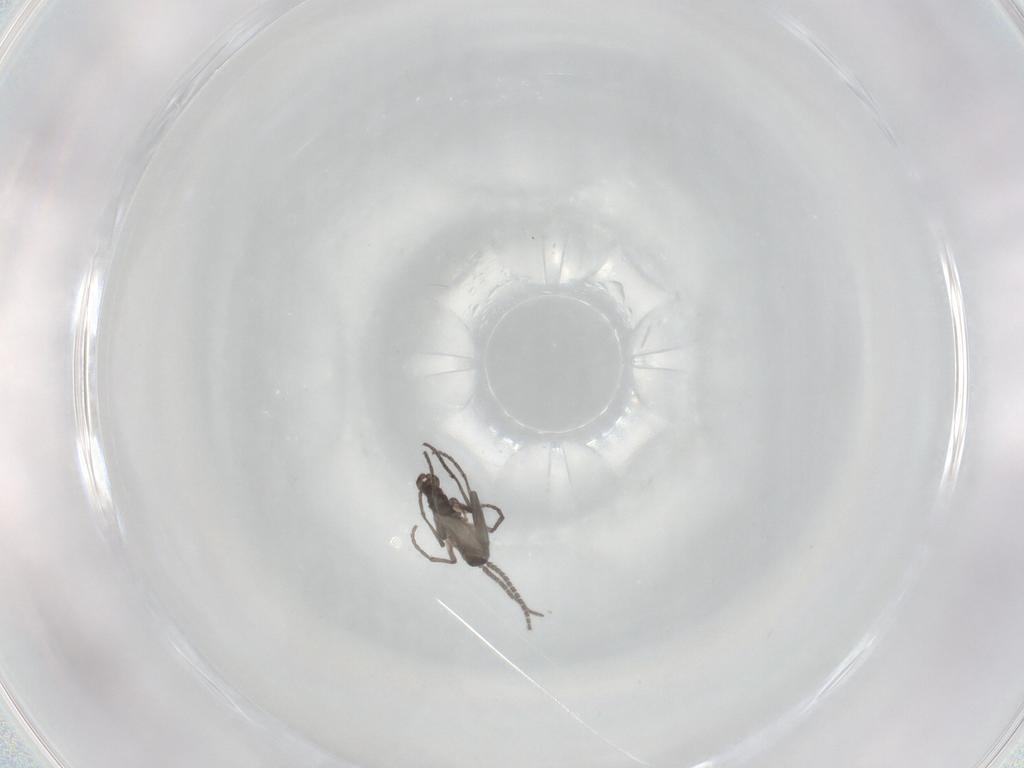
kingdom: Animalia
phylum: Arthropoda
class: Insecta
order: Diptera
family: Sciaridae
